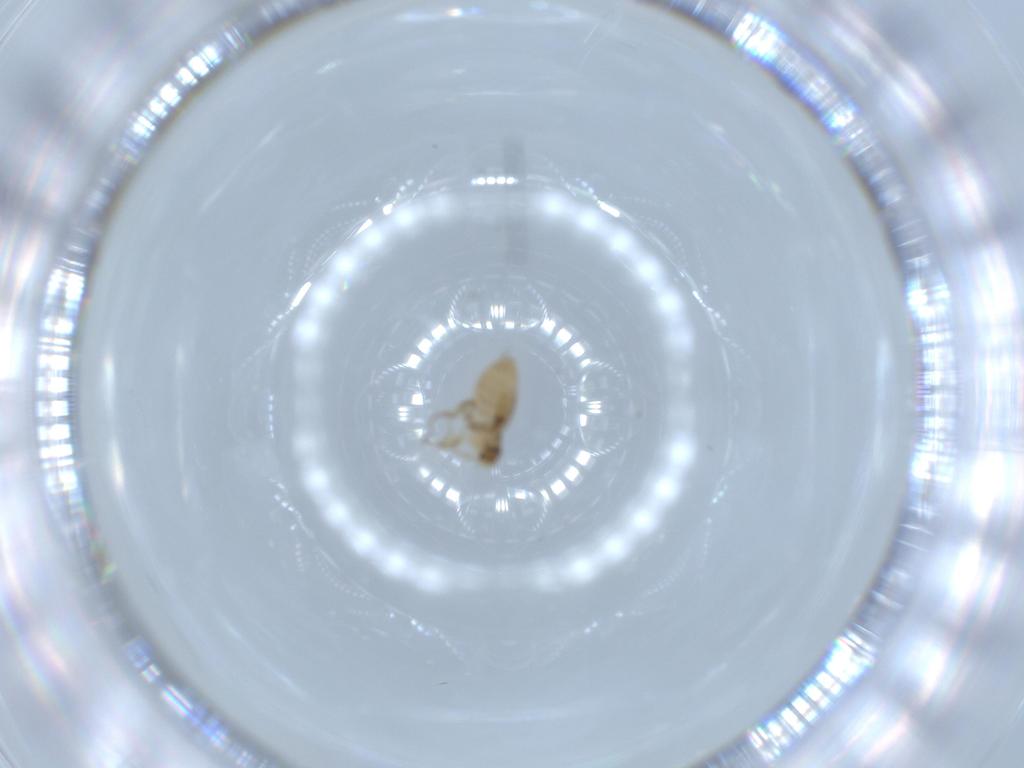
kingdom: Animalia
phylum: Arthropoda
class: Insecta
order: Diptera
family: Phoridae
